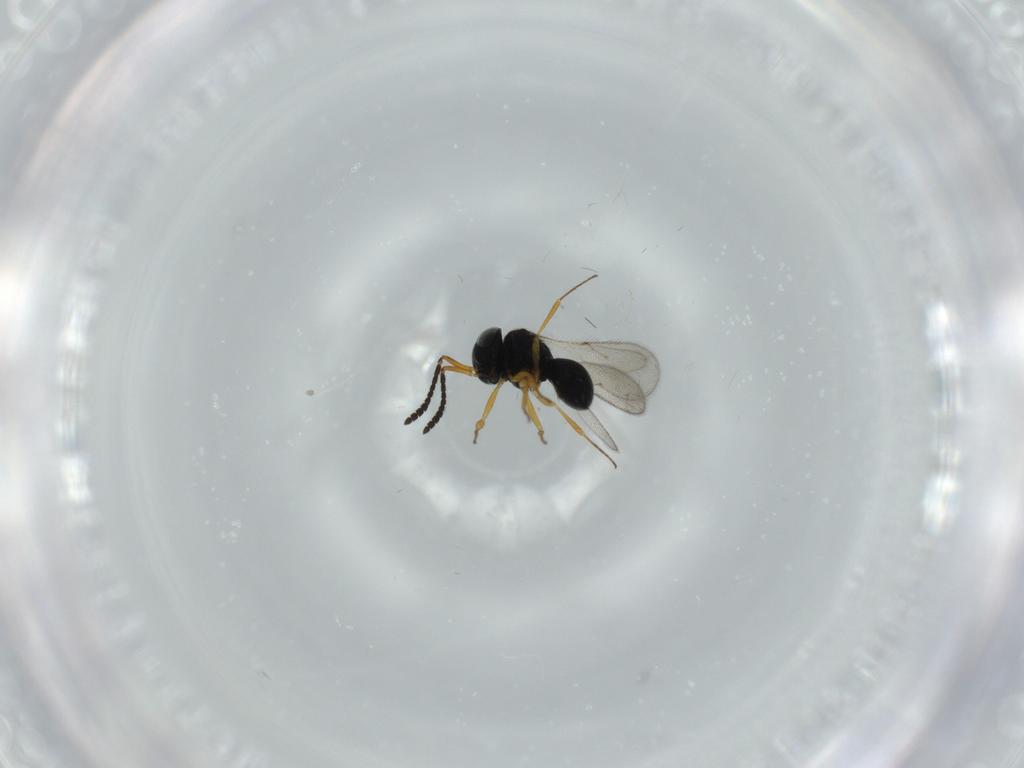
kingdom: Animalia
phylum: Arthropoda
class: Insecta
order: Hymenoptera
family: Scelionidae
